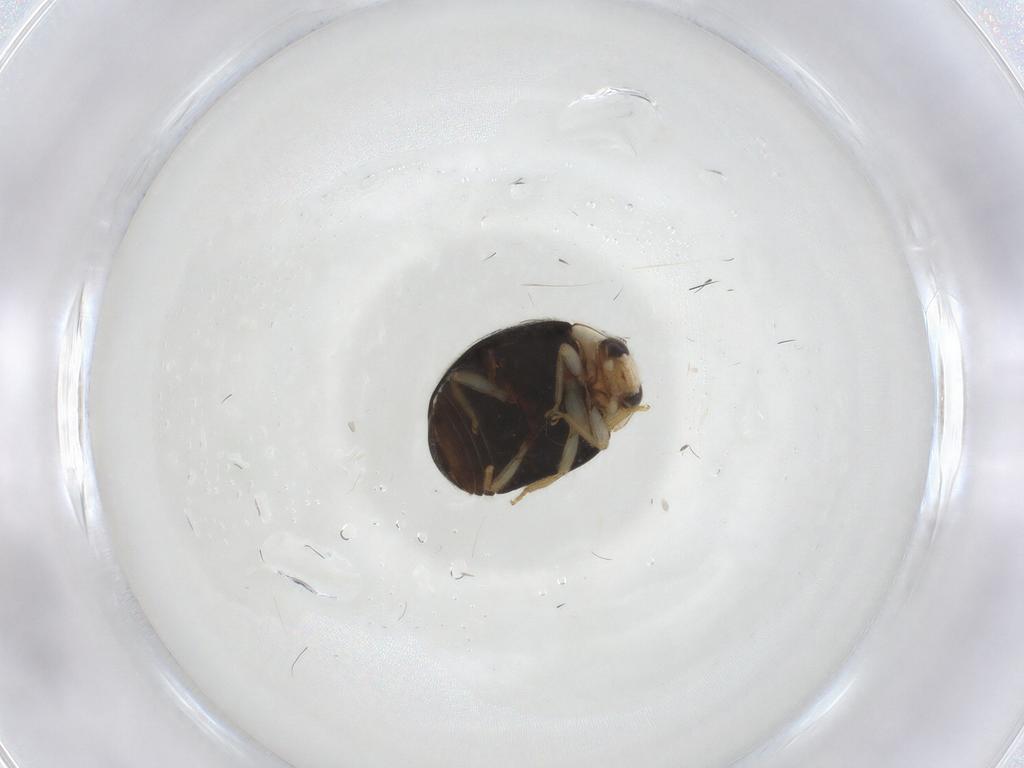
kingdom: Animalia
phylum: Arthropoda
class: Insecta
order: Coleoptera
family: Coccinellidae
